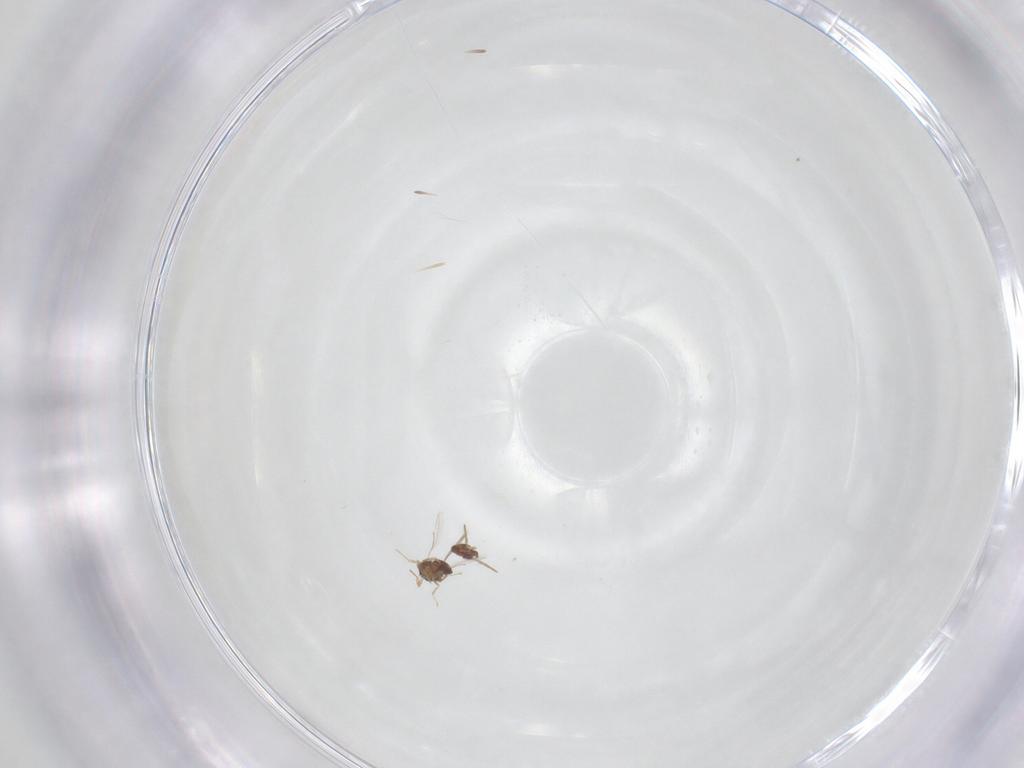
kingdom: Animalia
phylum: Arthropoda
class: Insecta
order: Hymenoptera
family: Aphelinidae
